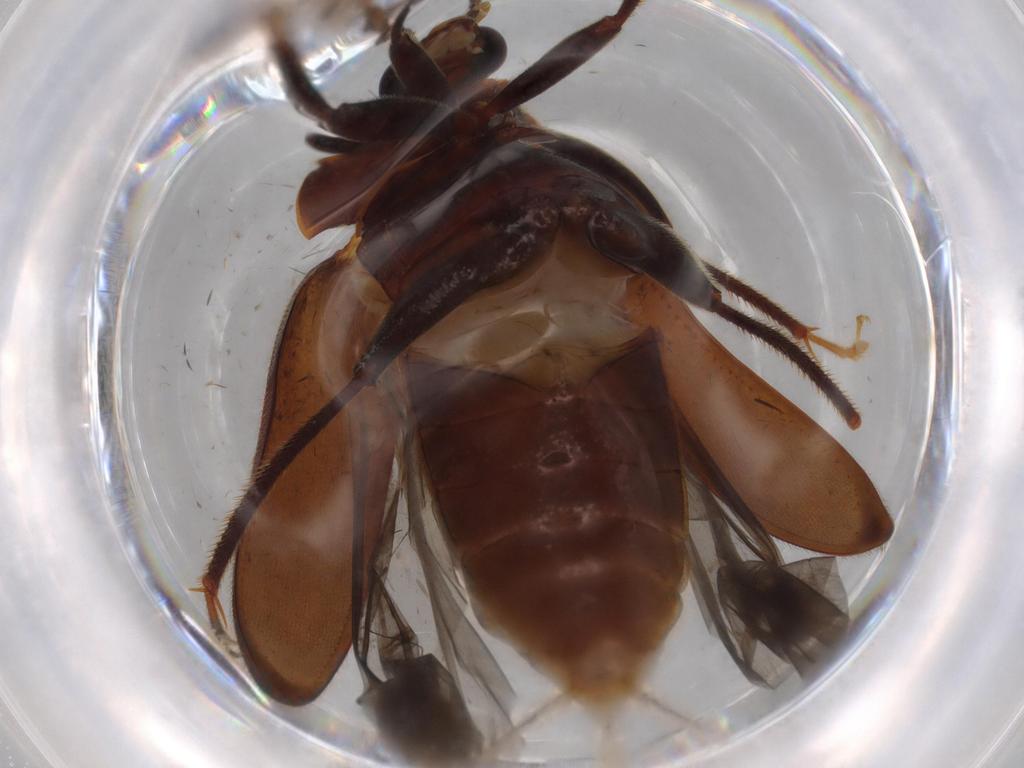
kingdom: Animalia
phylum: Arthropoda
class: Insecta
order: Coleoptera
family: Ptilodactylidae
